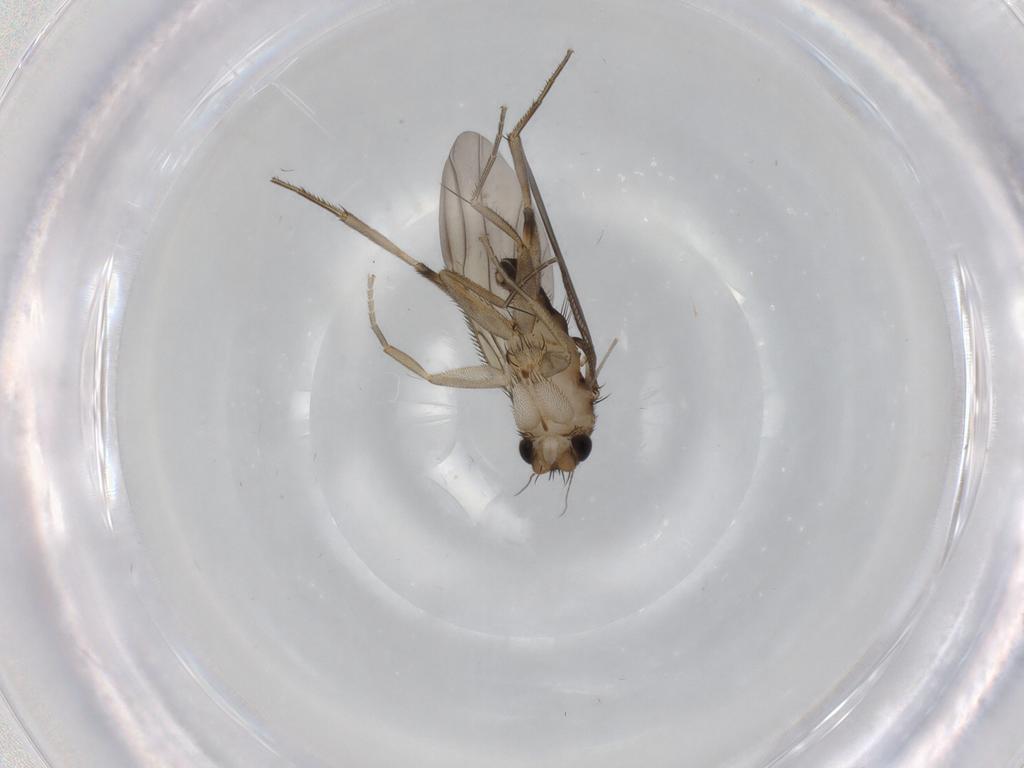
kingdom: Animalia
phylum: Arthropoda
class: Insecta
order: Diptera
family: Phoridae
